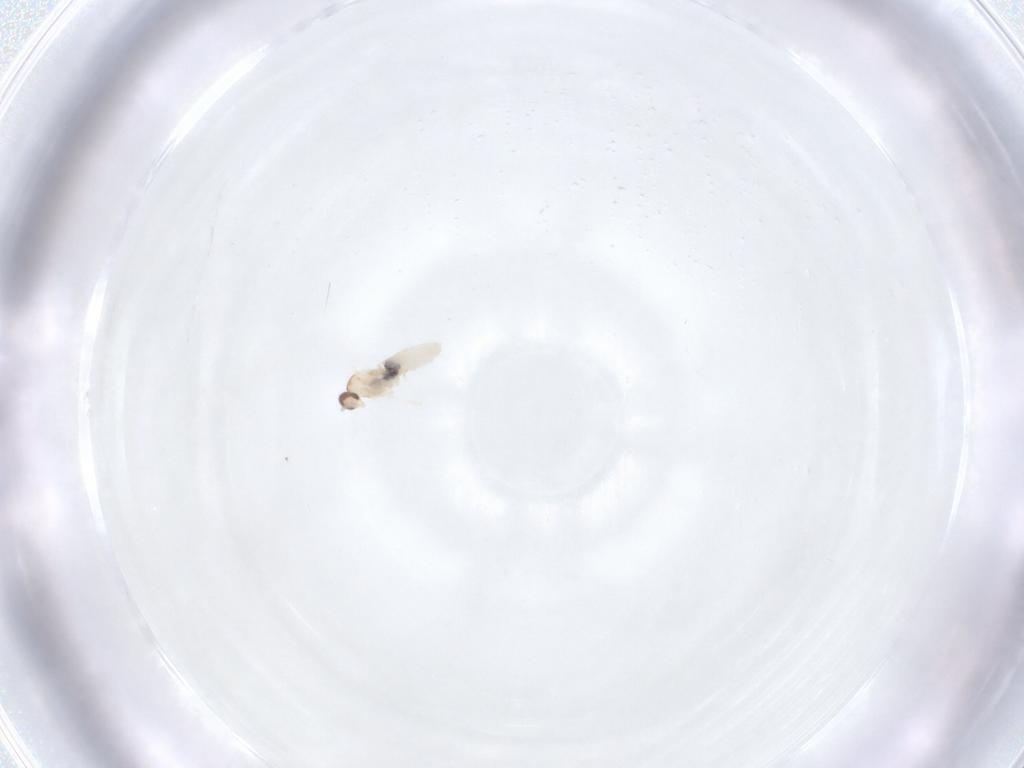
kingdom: Animalia
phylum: Arthropoda
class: Insecta
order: Diptera
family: Cecidomyiidae
